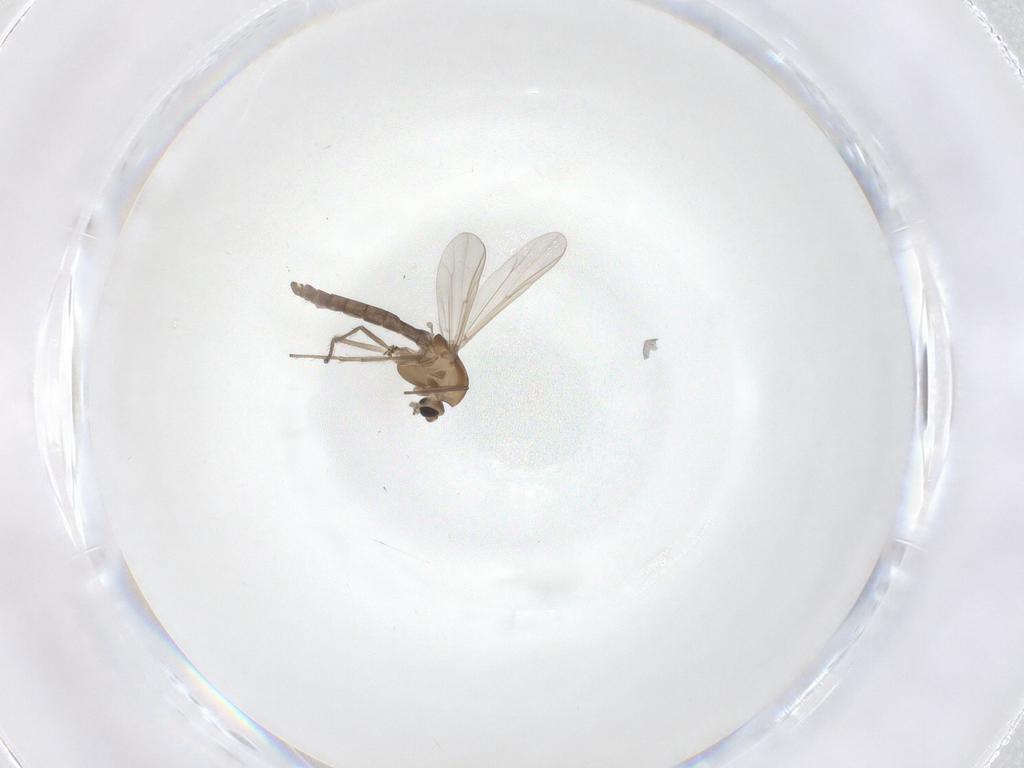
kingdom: Animalia
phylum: Arthropoda
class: Insecta
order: Diptera
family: Chironomidae
